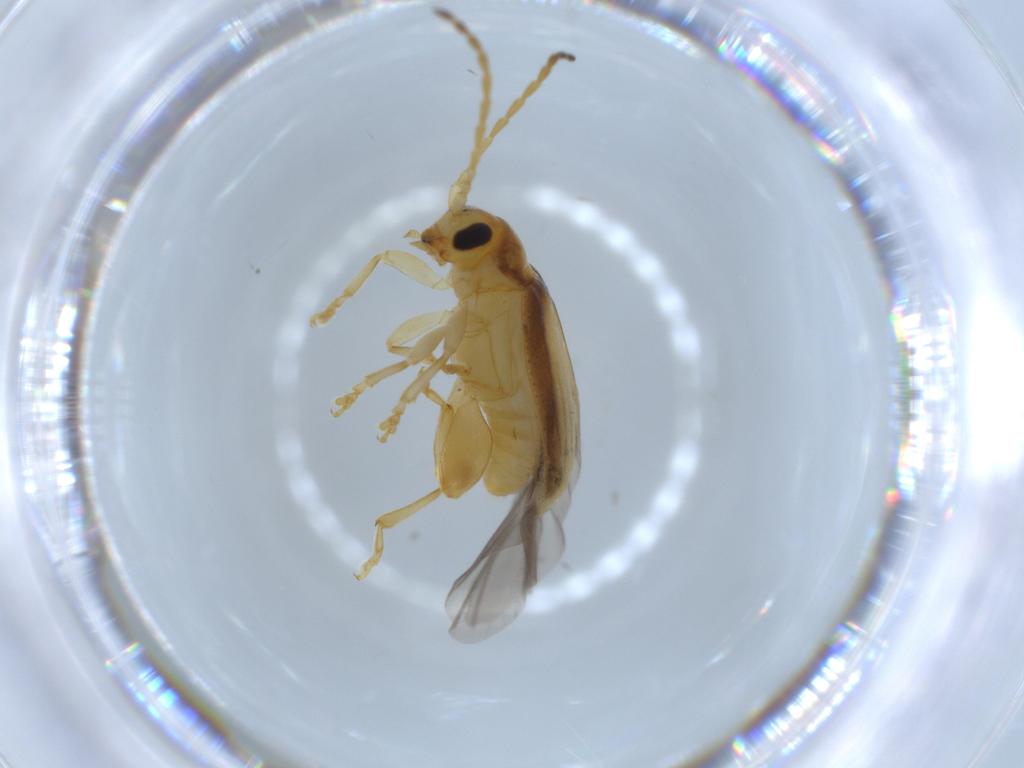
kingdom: Animalia
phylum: Arthropoda
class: Insecta
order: Coleoptera
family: Chrysomelidae
